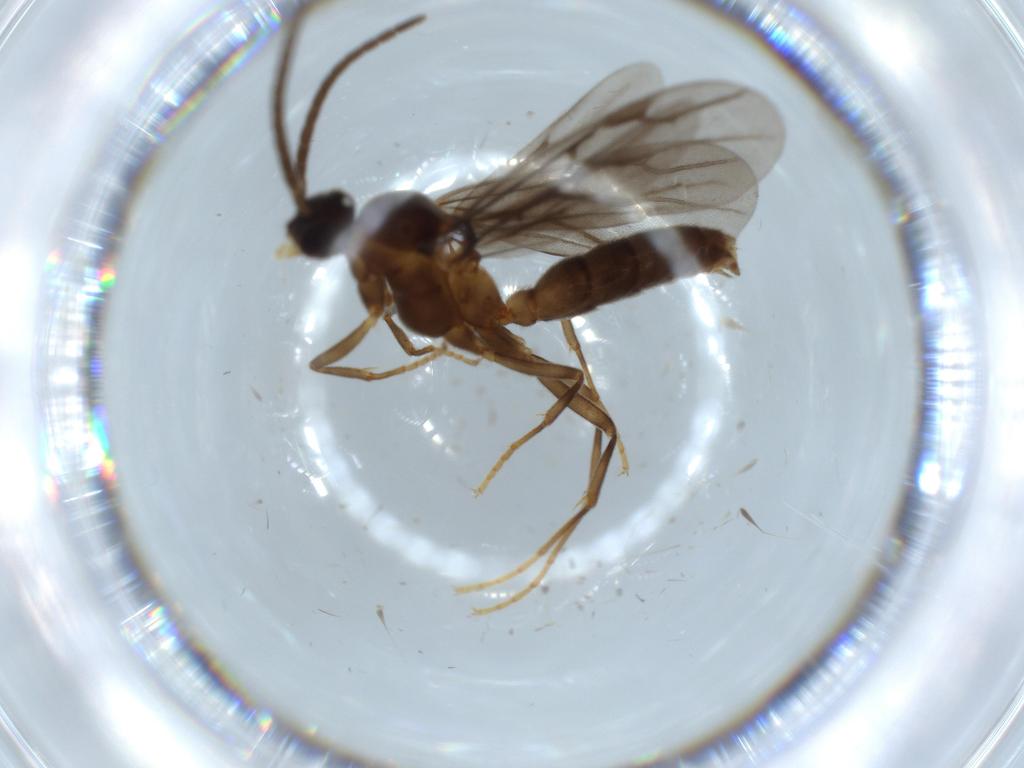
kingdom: Animalia
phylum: Arthropoda
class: Insecta
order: Hymenoptera
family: Formicidae
